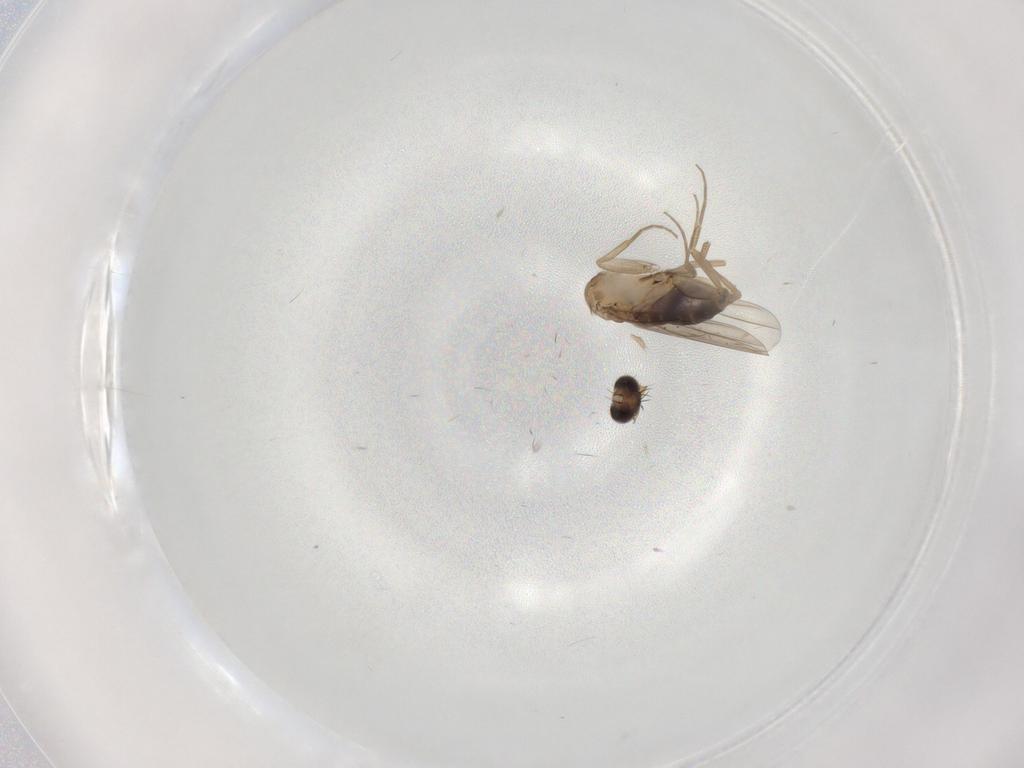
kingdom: Animalia
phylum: Arthropoda
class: Insecta
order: Diptera
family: Phoridae
